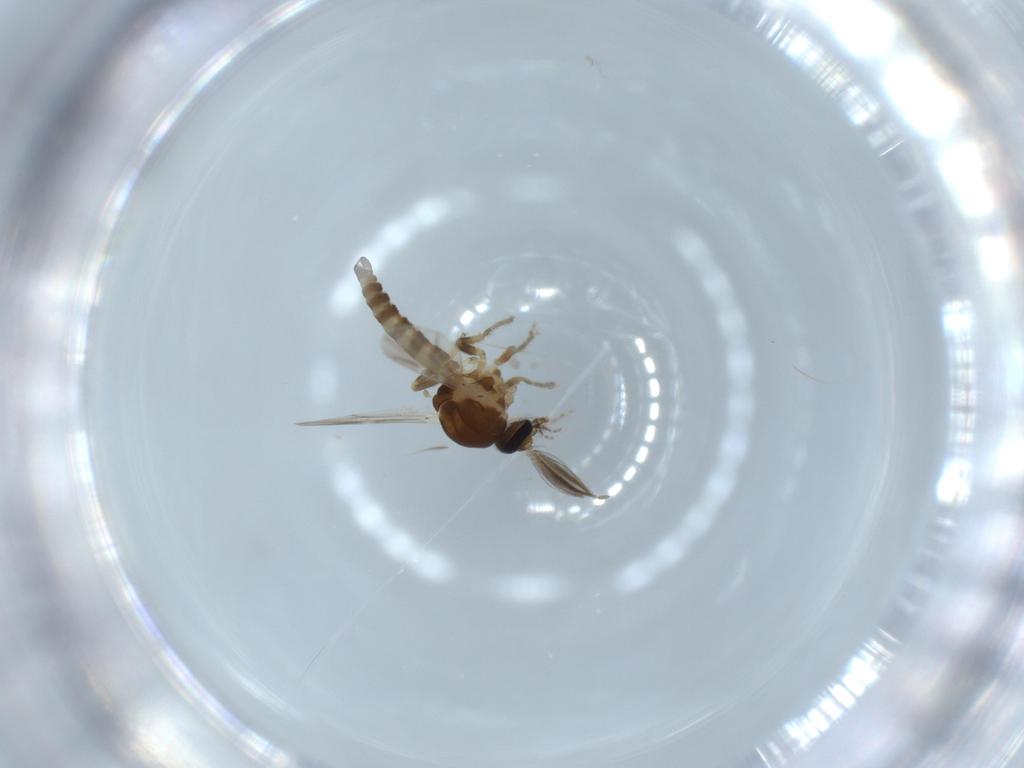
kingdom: Animalia
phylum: Arthropoda
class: Insecta
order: Diptera
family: Ceratopogonidae
